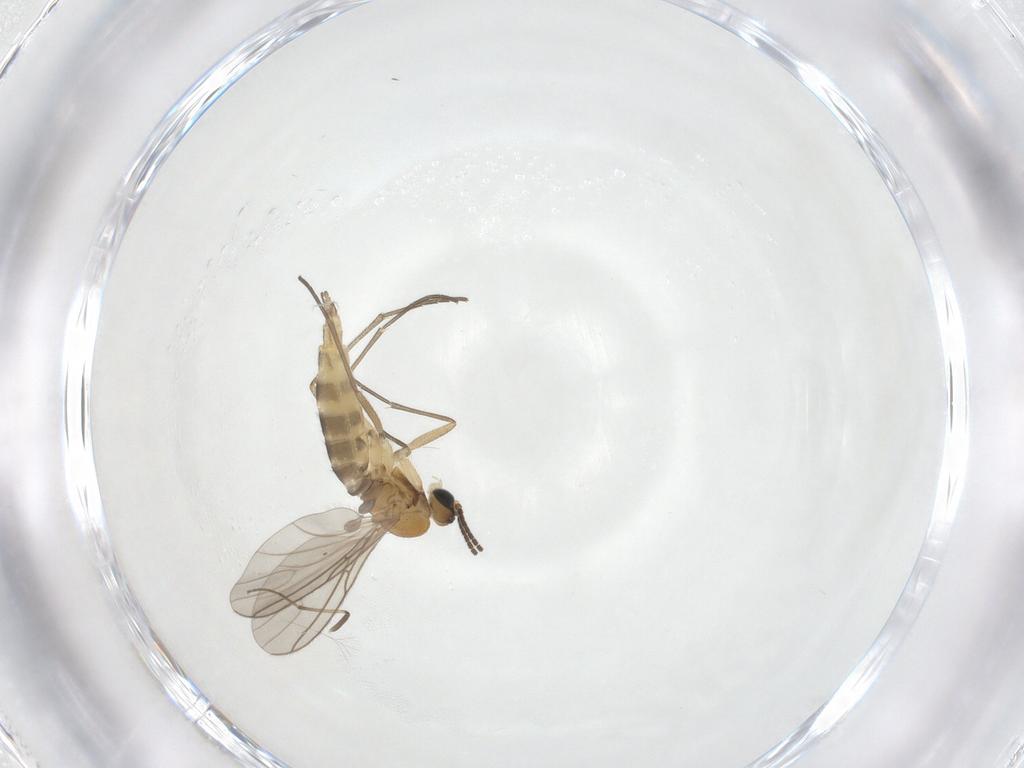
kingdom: Animalia
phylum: Arthropoda
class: Insecta
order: Diptera
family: Sciaridae
